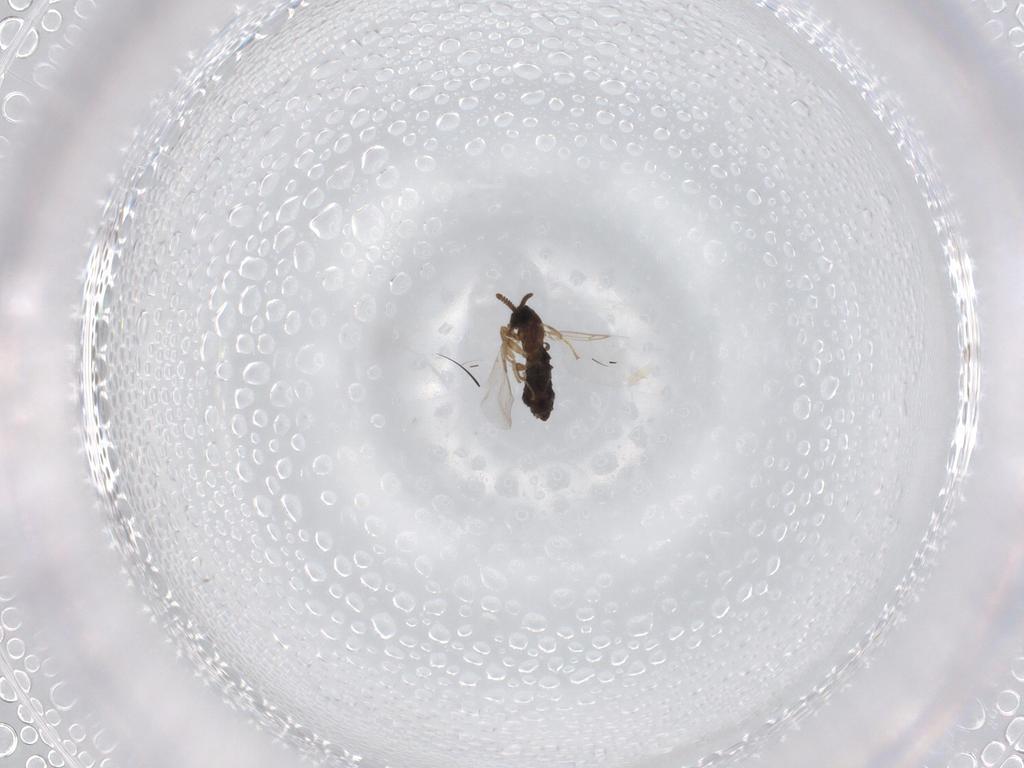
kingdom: Animalia
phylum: Arthropoda
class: Insecta
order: Diptera
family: Dolichopodidae
